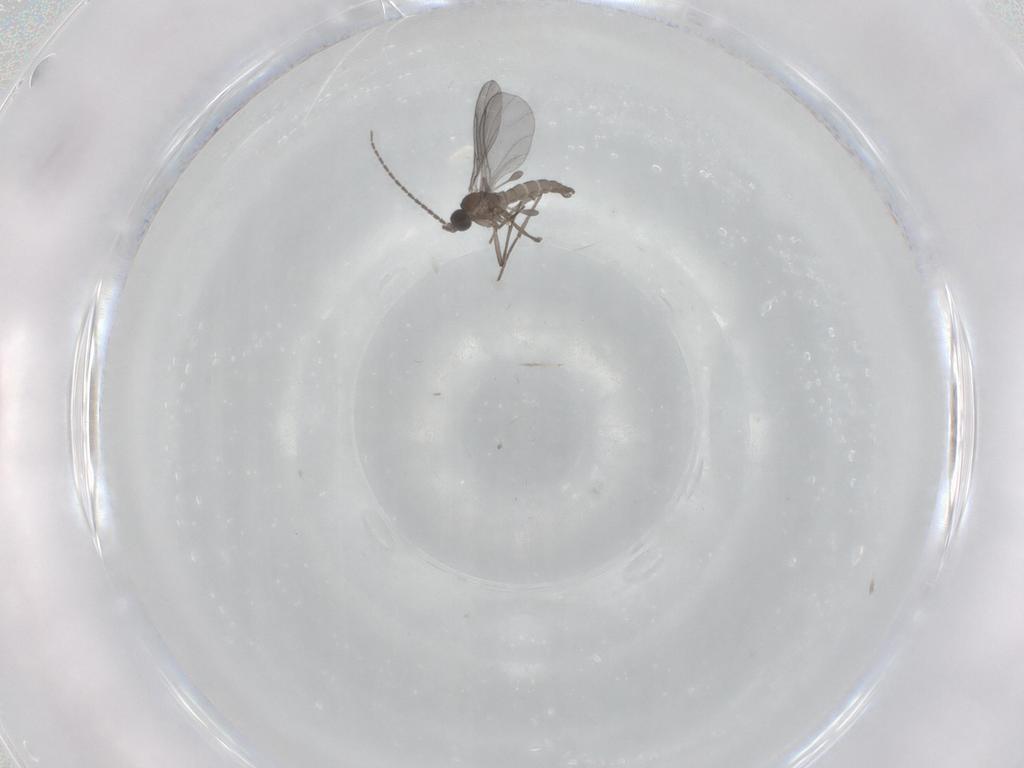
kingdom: Animalia
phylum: Arthropoda
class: Insecta
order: Diptera
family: Sciaridae
